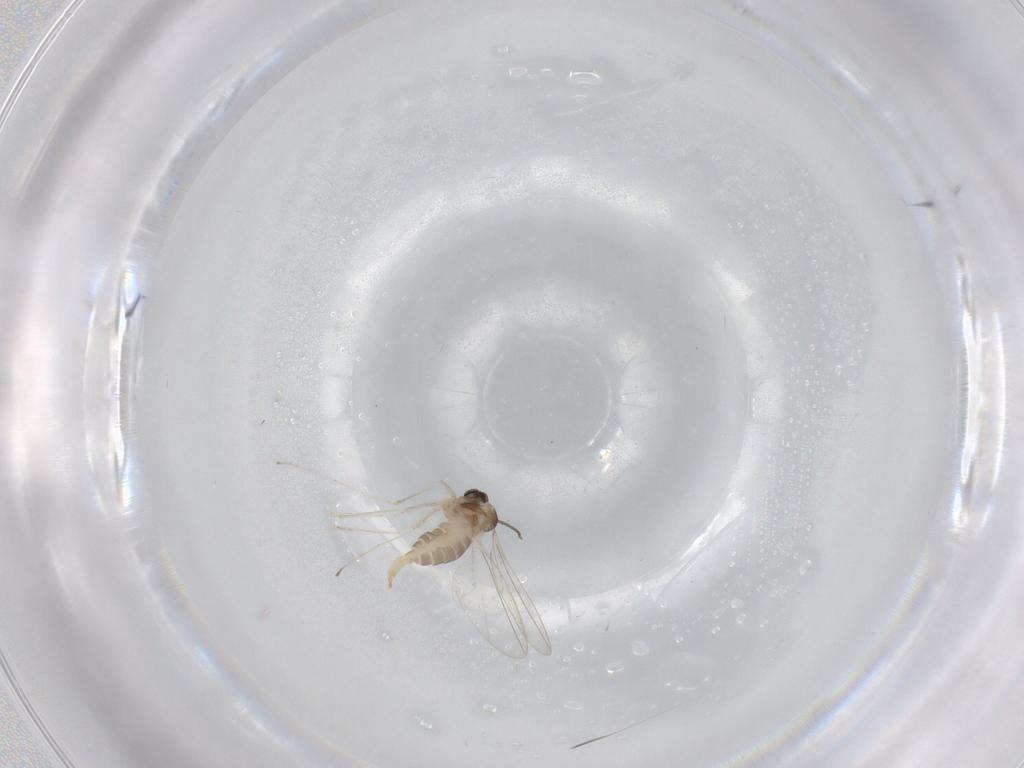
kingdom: Animalia
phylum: Arthropoda
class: Insecta
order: Diptera
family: Cecidomyiidae
